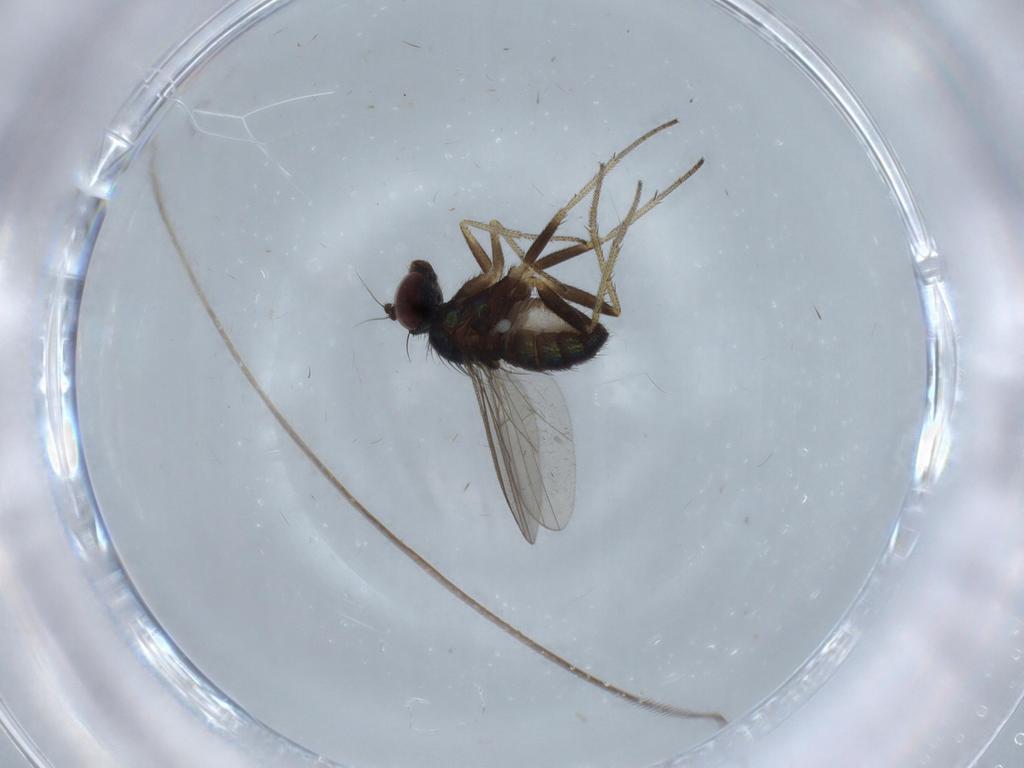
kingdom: Animalia
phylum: Arthropoda
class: Insecta
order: Diptera
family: Dolichopodidae
